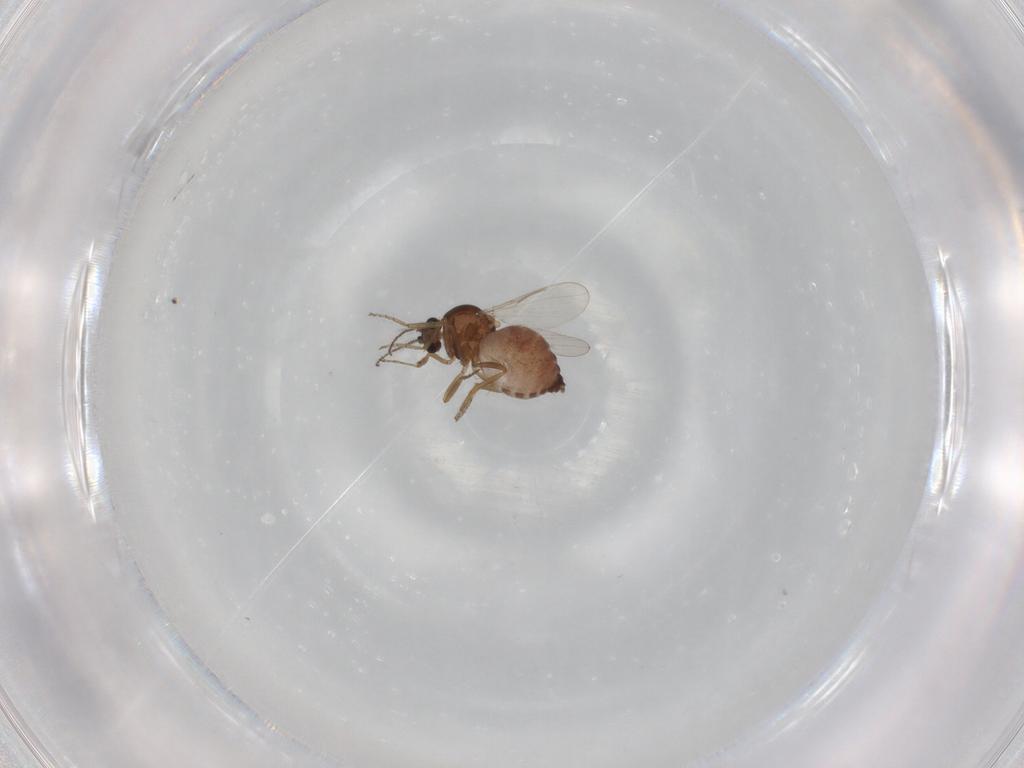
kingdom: Animalia
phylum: Arthropoda
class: Insecta
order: Diptera
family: Ceratopogonidae
